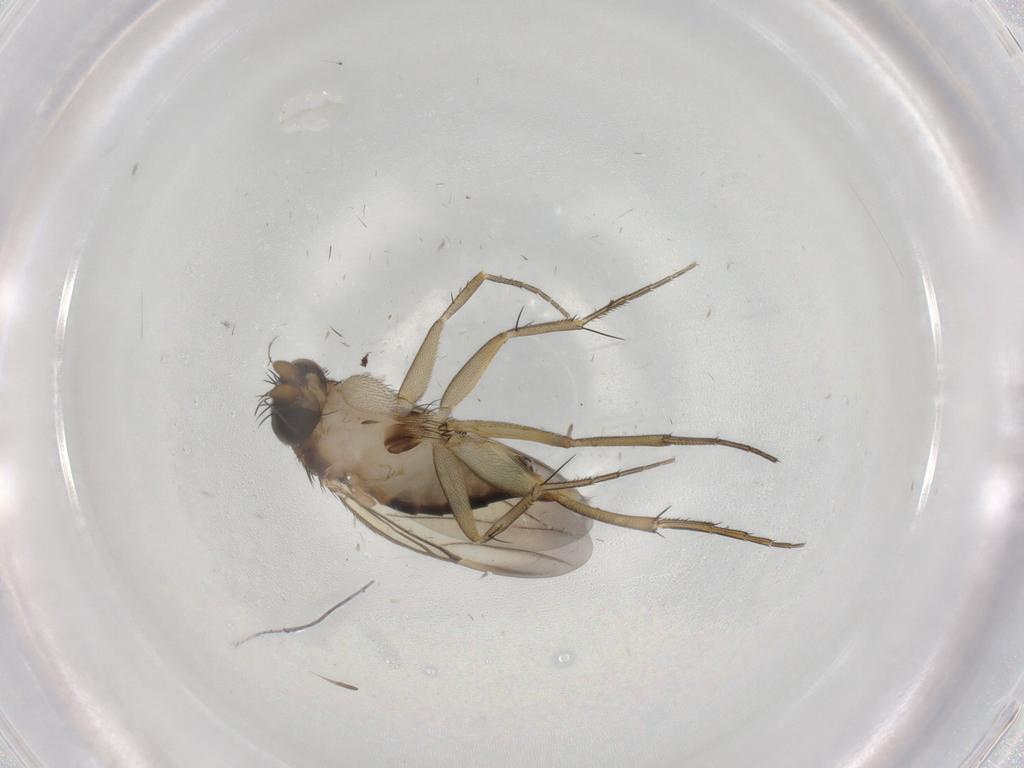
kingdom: Animalia
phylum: Arthropoda
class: Insecta
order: Diptera
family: Phoridae
